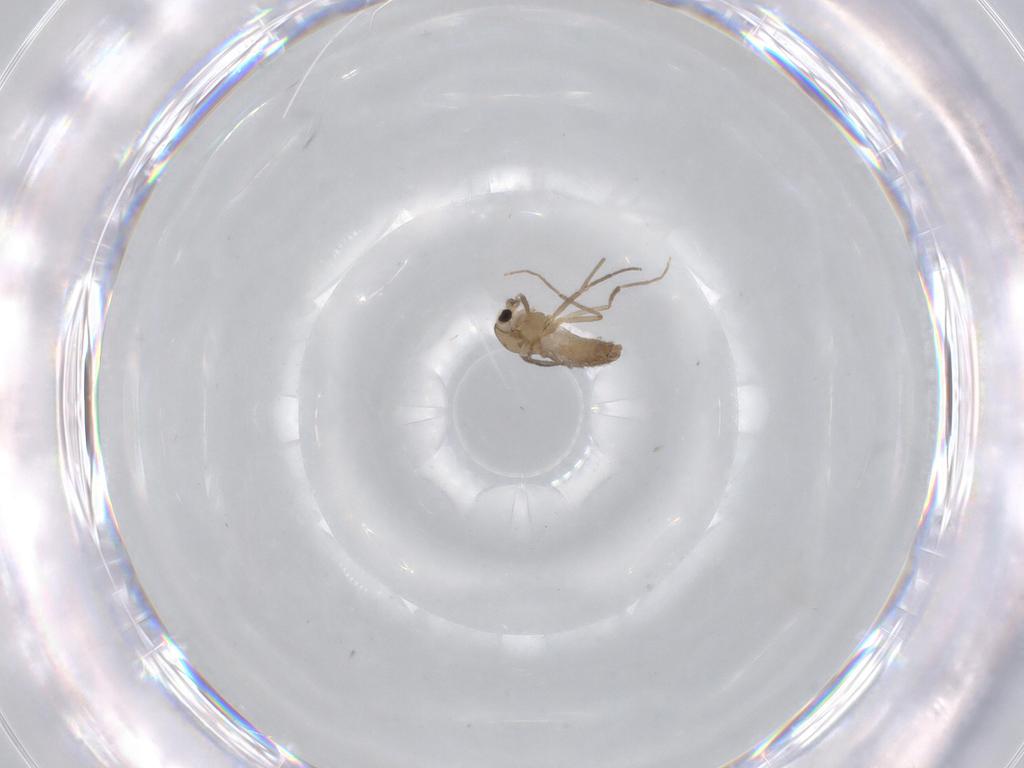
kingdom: Animalia
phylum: Arthropoda
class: Insecta
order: Diptera
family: Chironomidae
